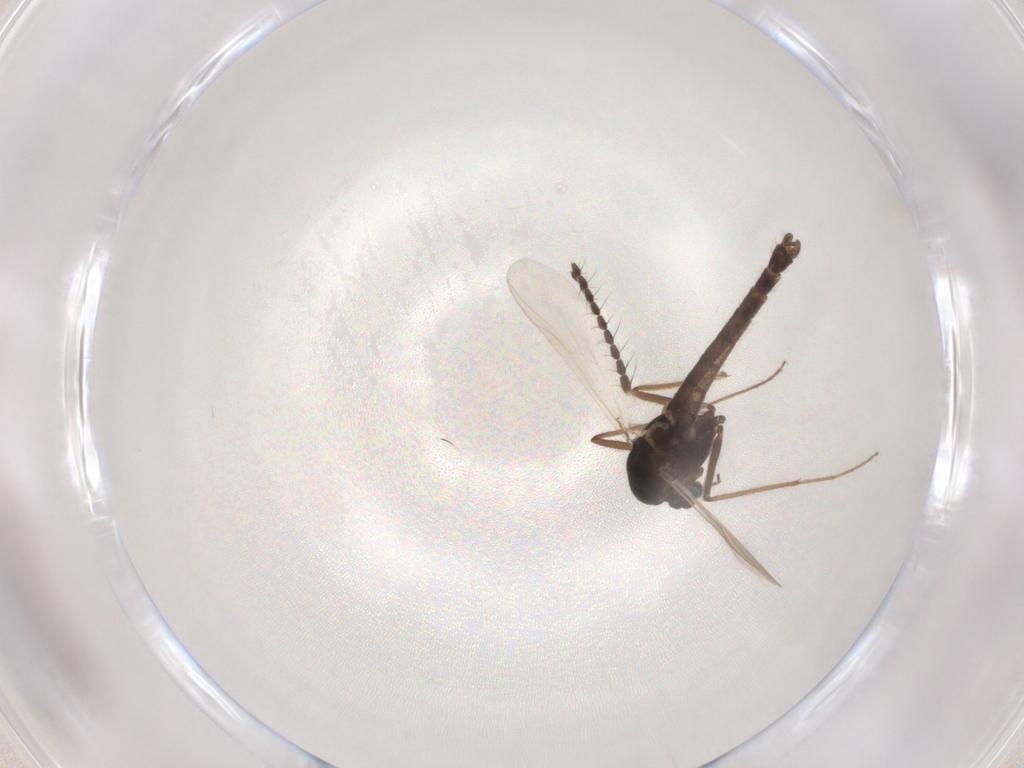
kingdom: Animalia
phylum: Arthropoda
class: Insecta
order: Diptera
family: Chironomidae
